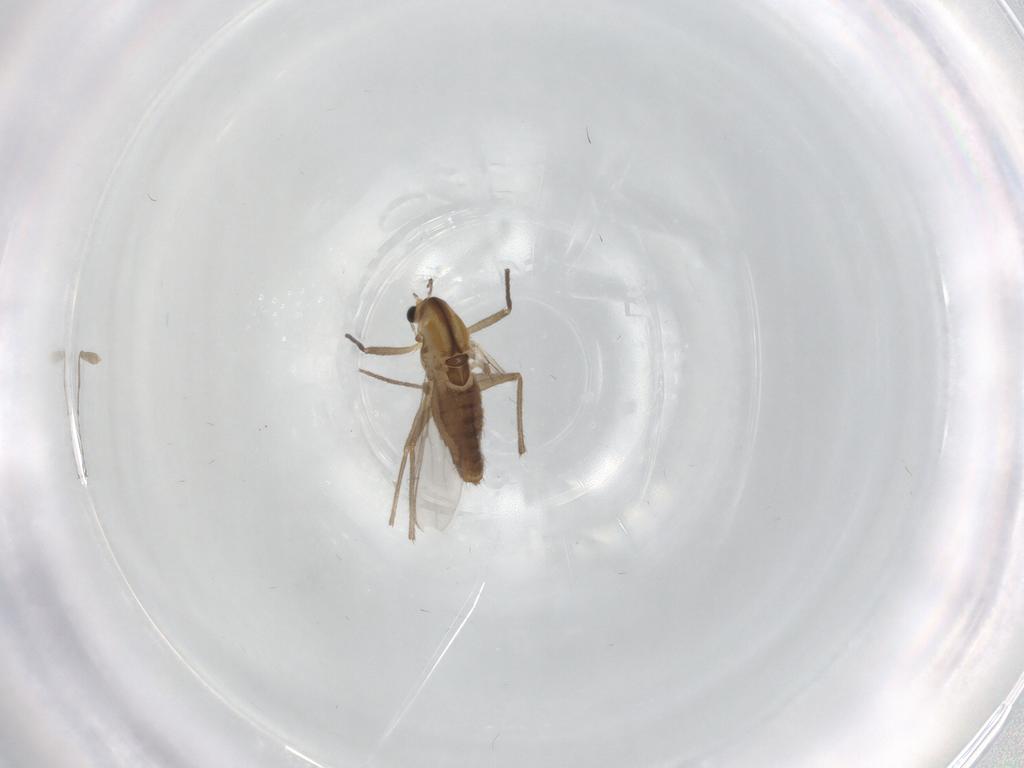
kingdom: Animalia
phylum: Arthropoda
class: Insecta
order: Diptera
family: Chironomidae
